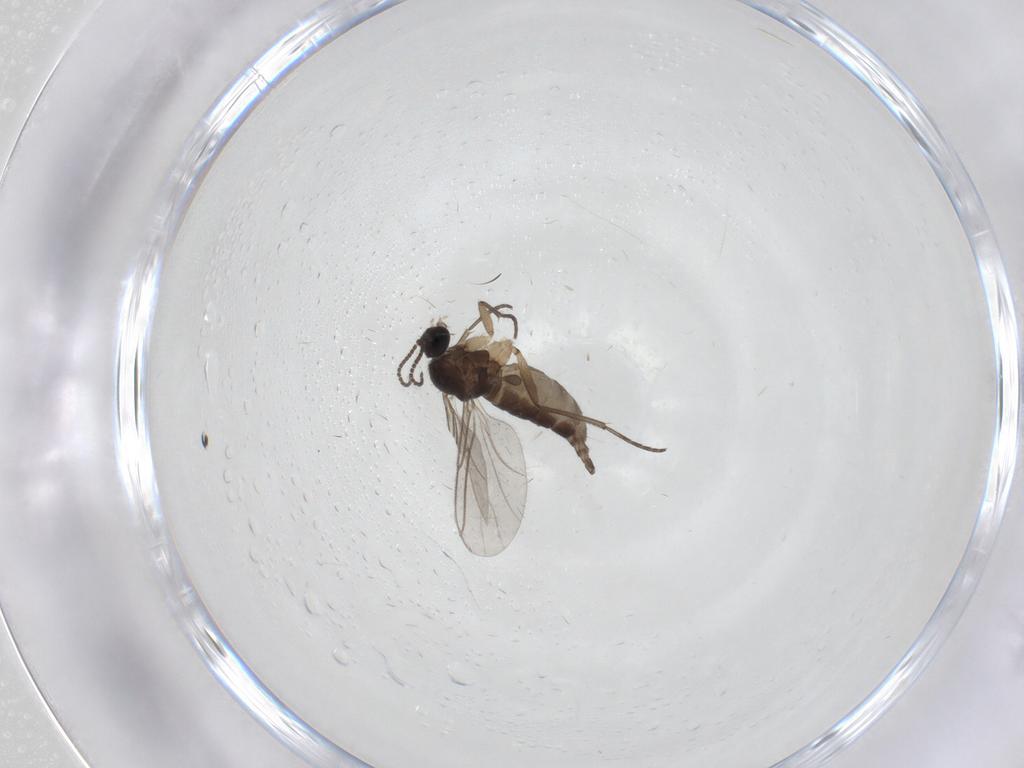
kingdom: Animalia
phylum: Arthropoda
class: Insecta
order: Diptera
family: Sciaridae
